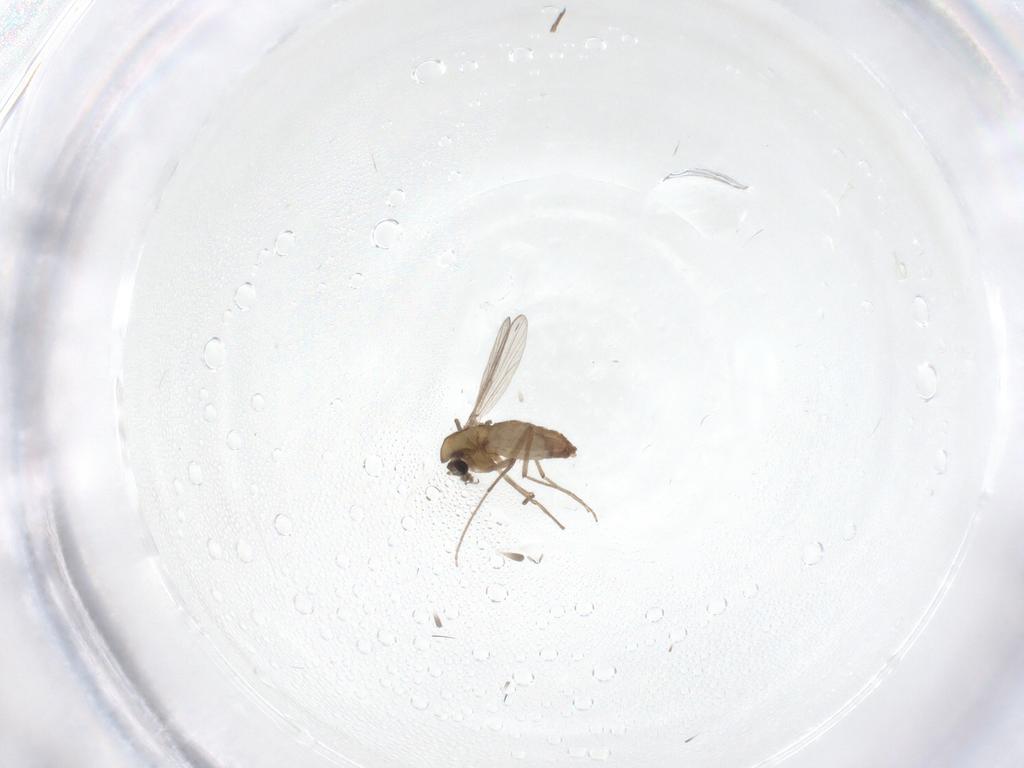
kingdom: Animalia
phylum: Arthropoda
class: Insecta
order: Diptera
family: Chironomidae
